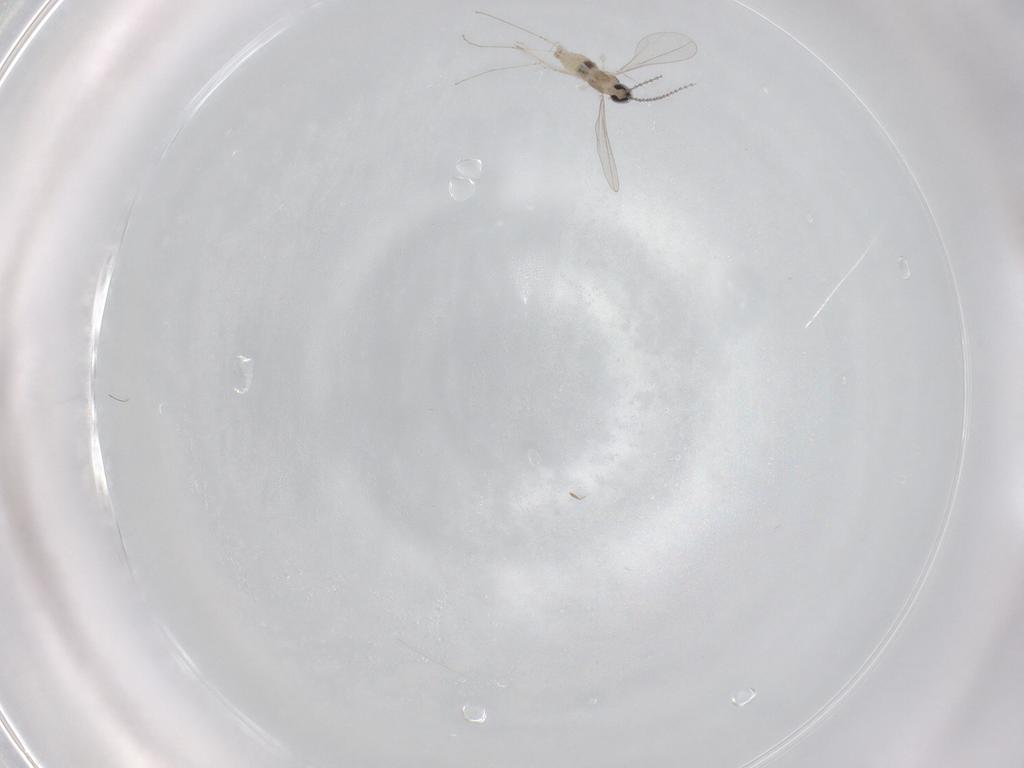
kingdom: Animalia
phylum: Arthropoda
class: Insecta
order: Diptera
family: Cecidomyiidae
